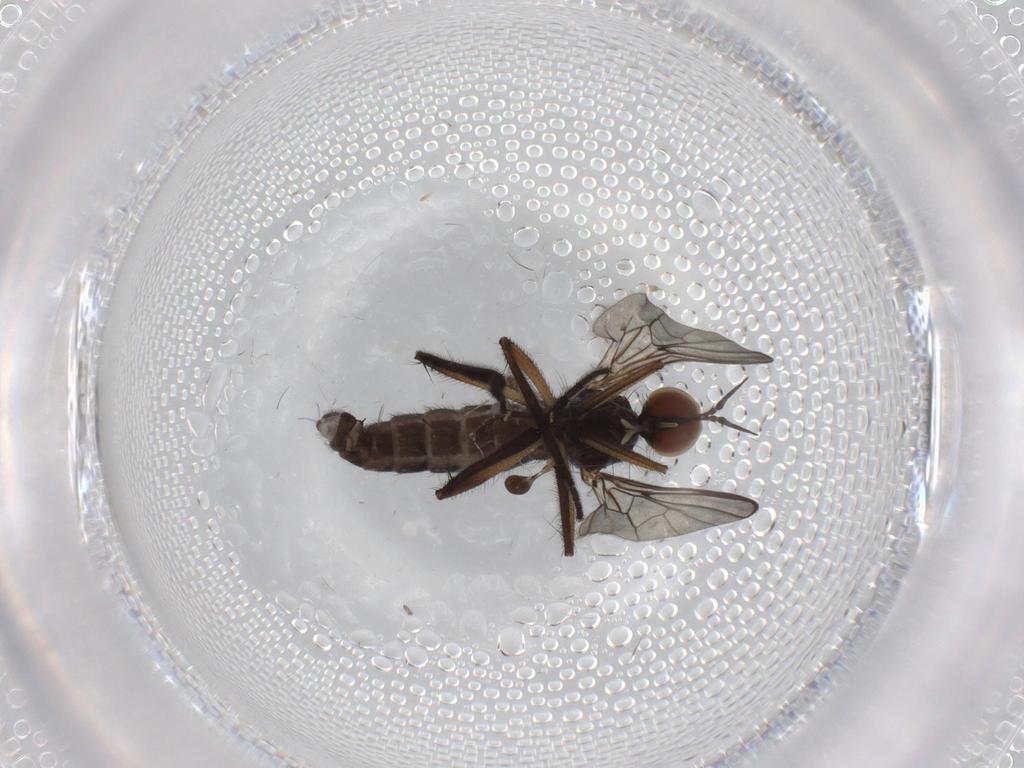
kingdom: Animalia
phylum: Arthropoda
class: Insecta
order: Diptera
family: Empididae
